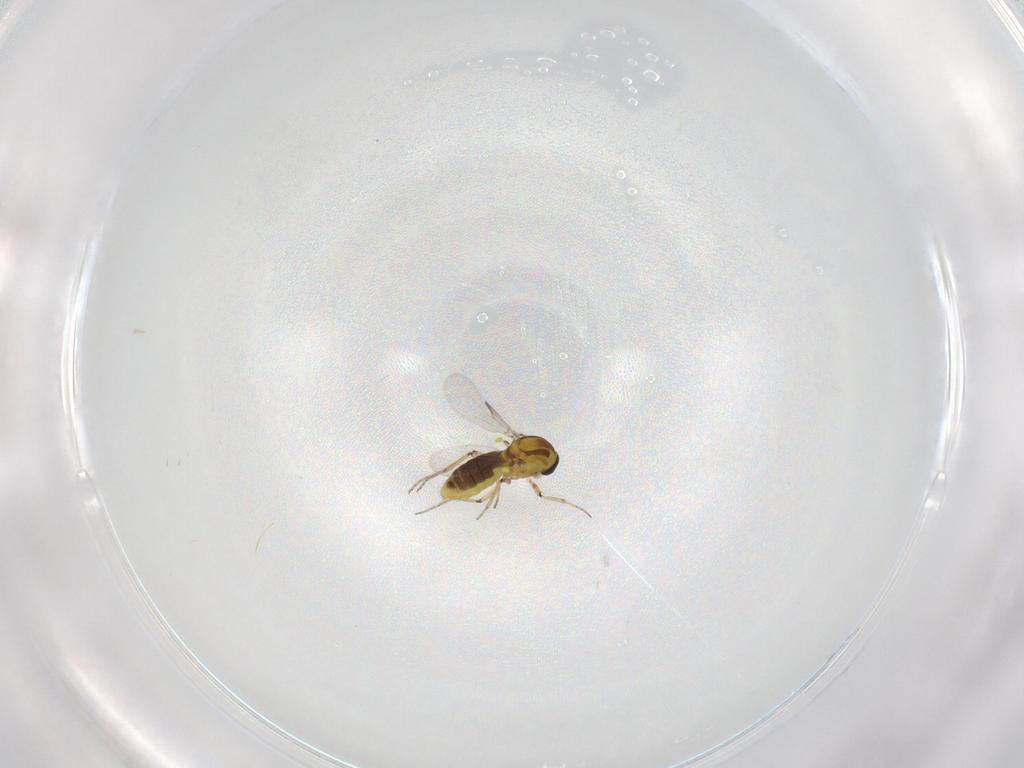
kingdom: Animalia
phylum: Arthropoda
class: Insecta
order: Diptera
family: Ceratopogonidae
